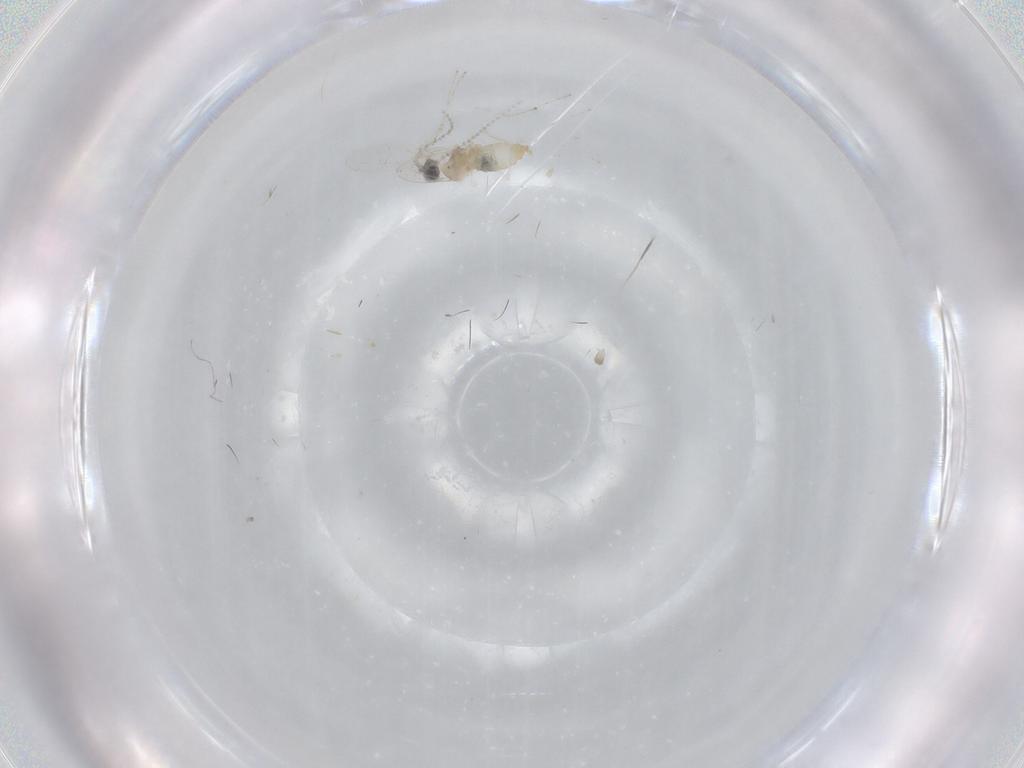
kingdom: Animalia
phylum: Arthropoda
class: Insecta
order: Diptera
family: Cecidomyiidae
